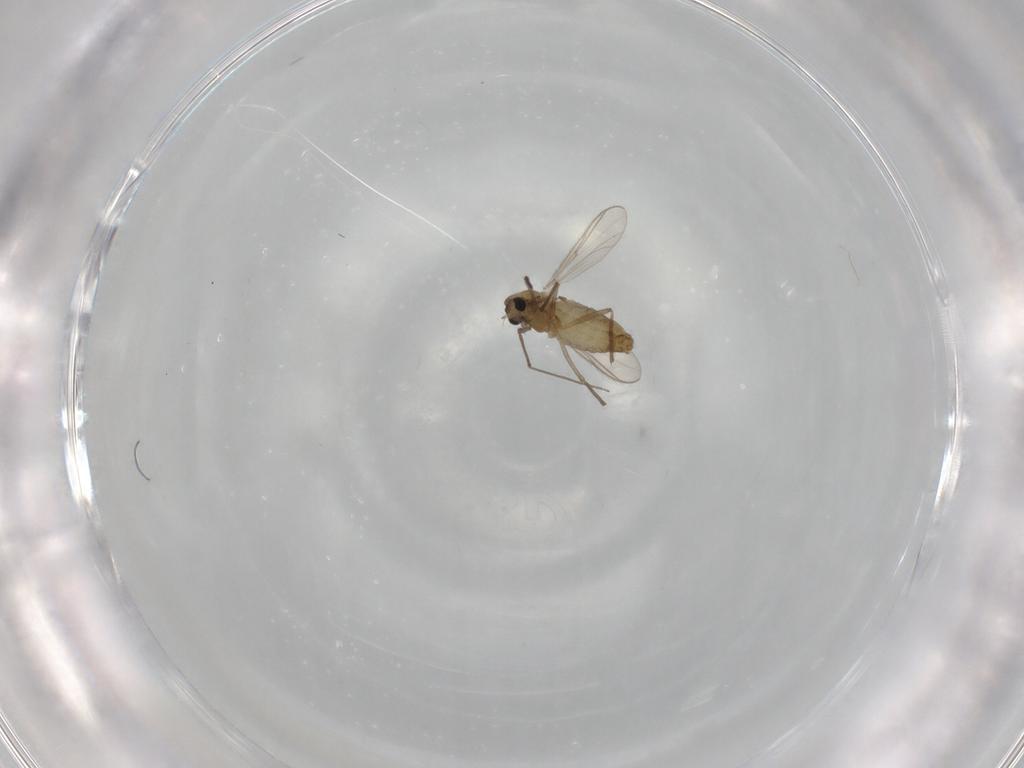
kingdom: Animalia
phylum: Arthropoda
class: Insecta
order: Diptera
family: Chironomidae
